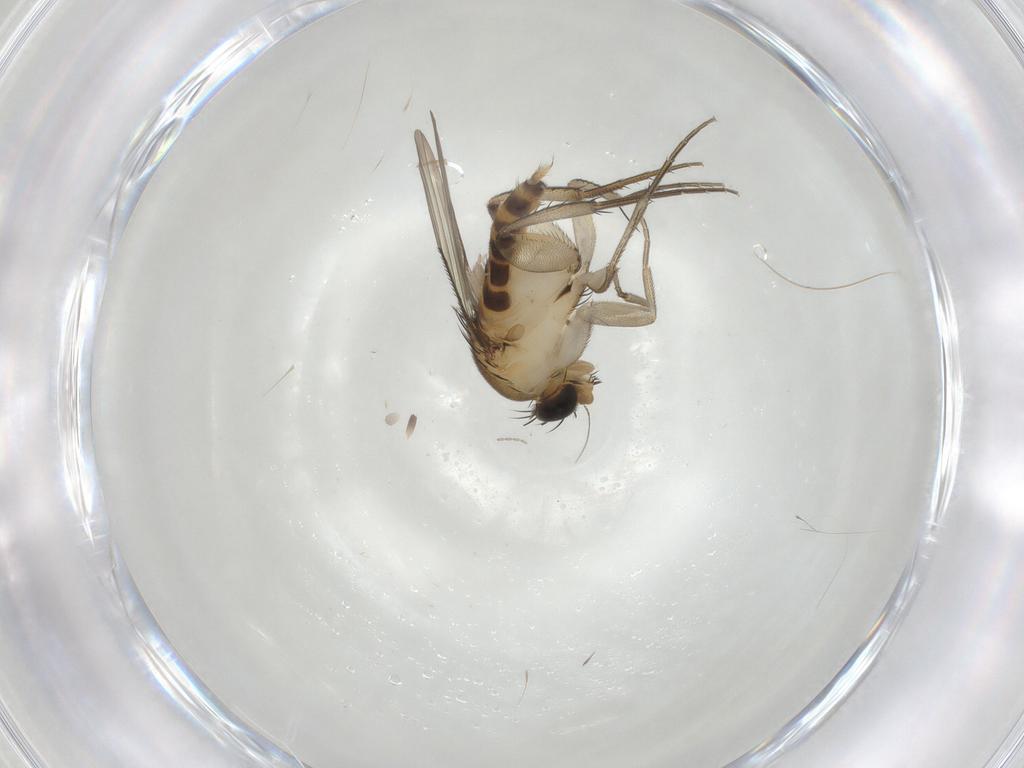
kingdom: Animalia
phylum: Arthropoda
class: Insecta
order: Diptera
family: Phoridae
